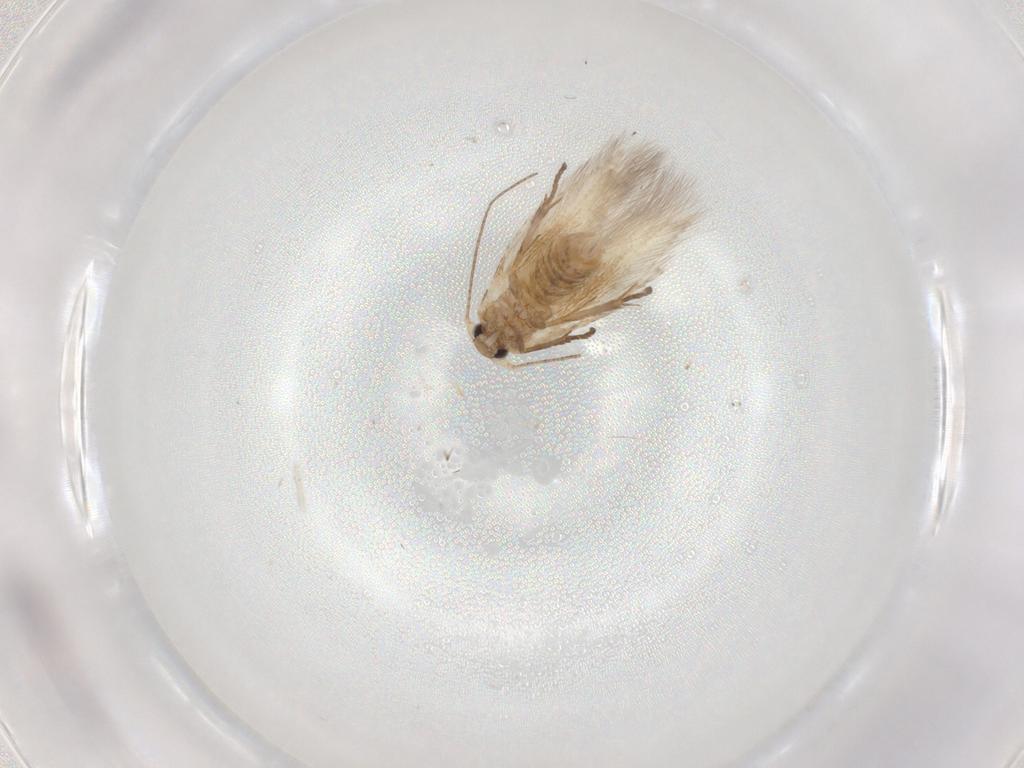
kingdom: Animalia
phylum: Arthropoda
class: Insecta
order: Lepidoptera
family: Bucculatricidae
